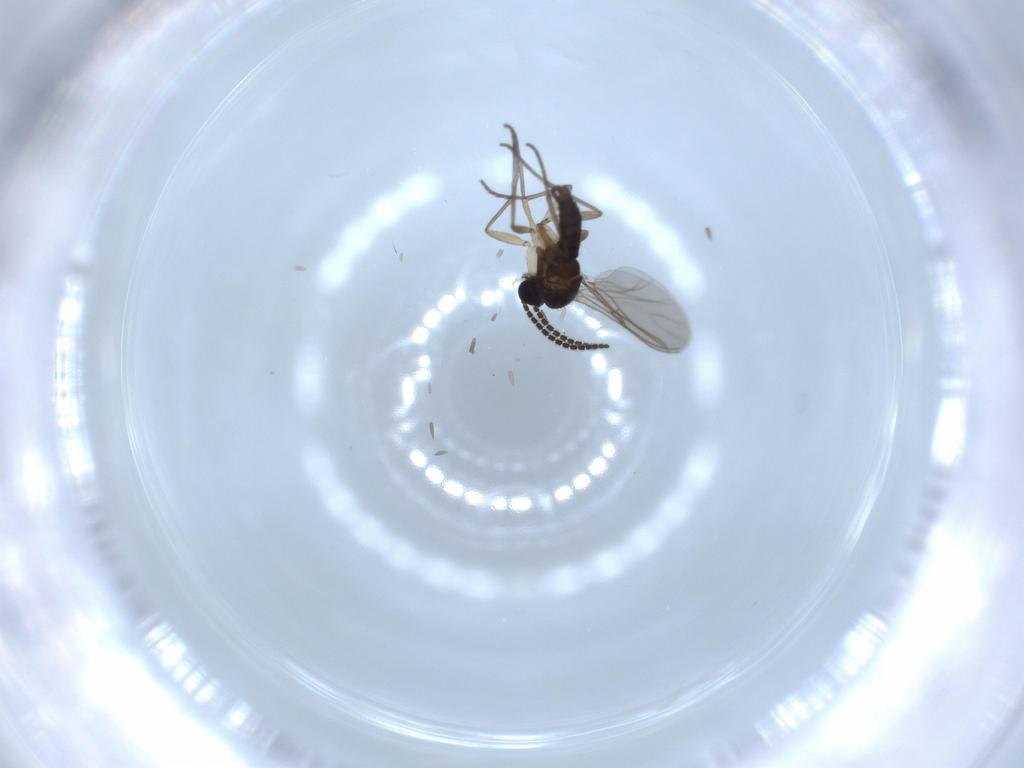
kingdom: Animalia
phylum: Arthropoda
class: Insecta
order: Diptera
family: Sciaridae
